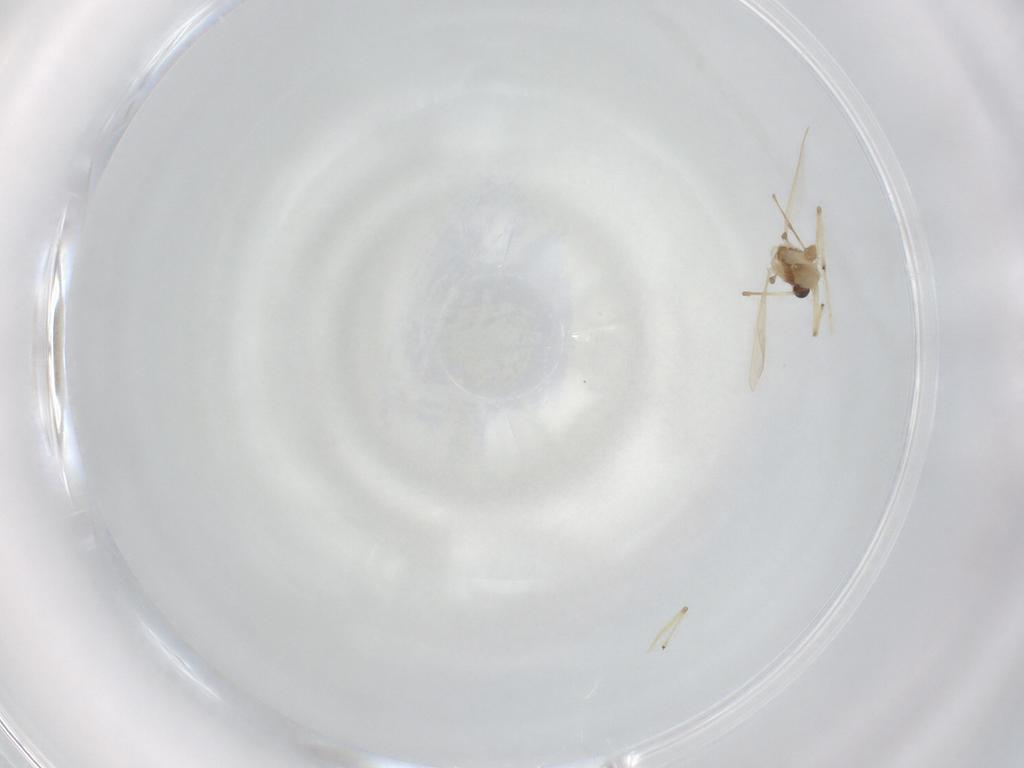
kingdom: Animalia
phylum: Arthropoda
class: Insecta
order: Diptera
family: Chironomidae
